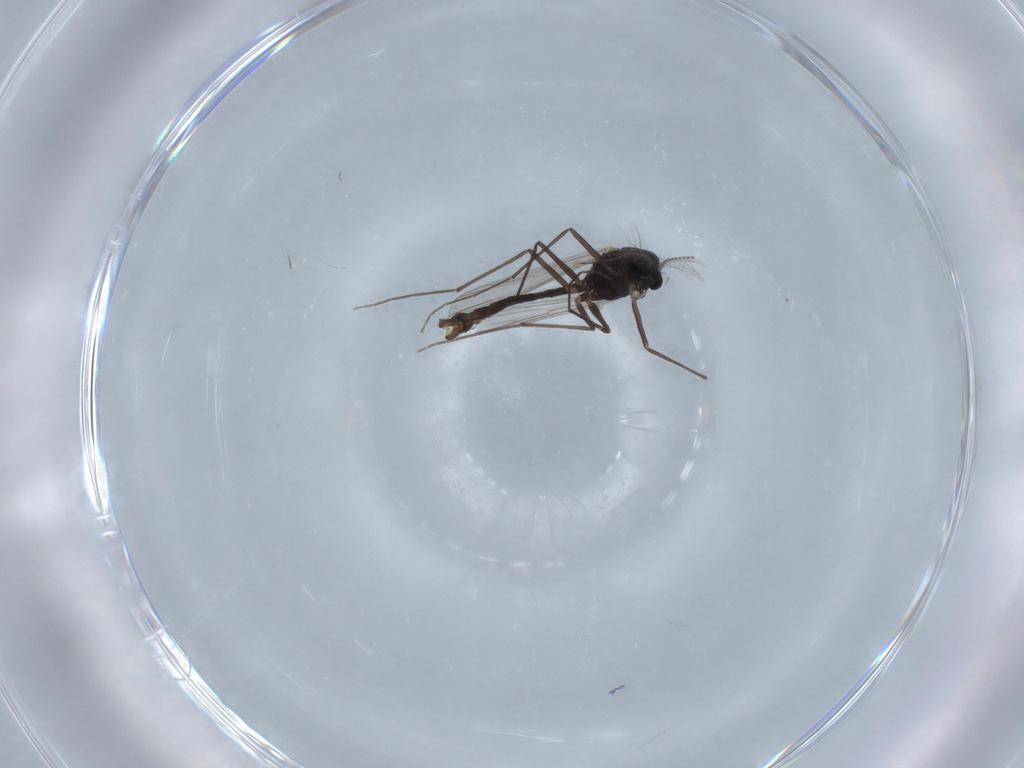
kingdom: Animalia
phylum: Arthropoda
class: Insecta
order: Diptera
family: Chironomidae
